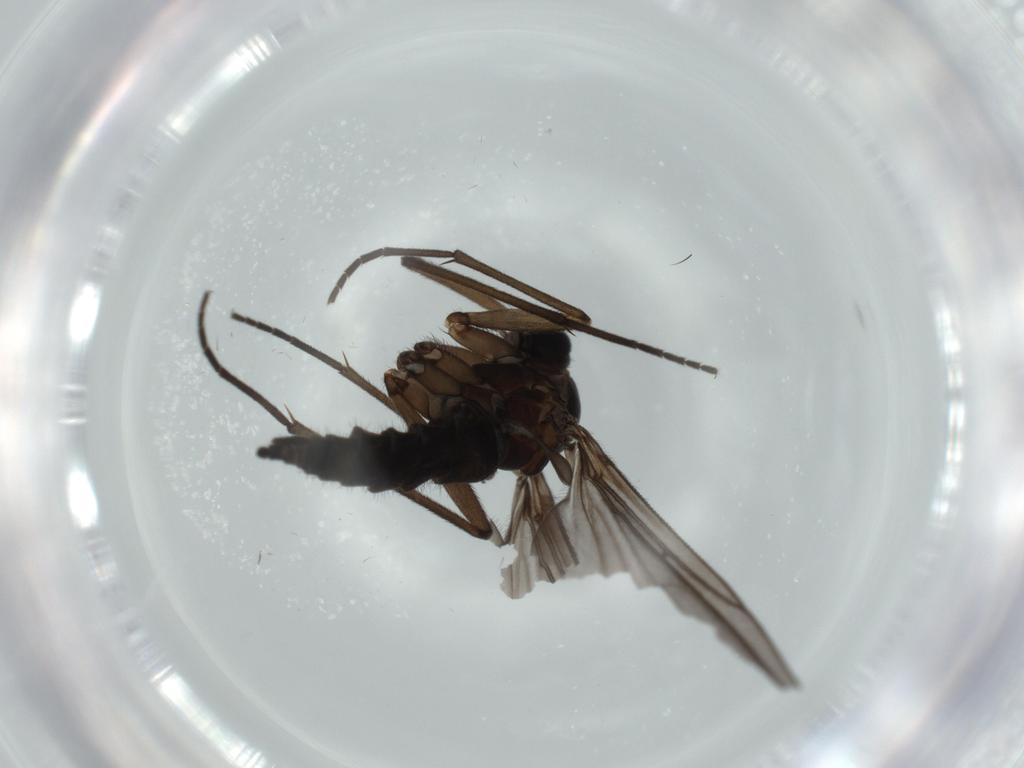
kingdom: Animalia
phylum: Arthropoda
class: Insecta
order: Diptera
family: Sciaridae
